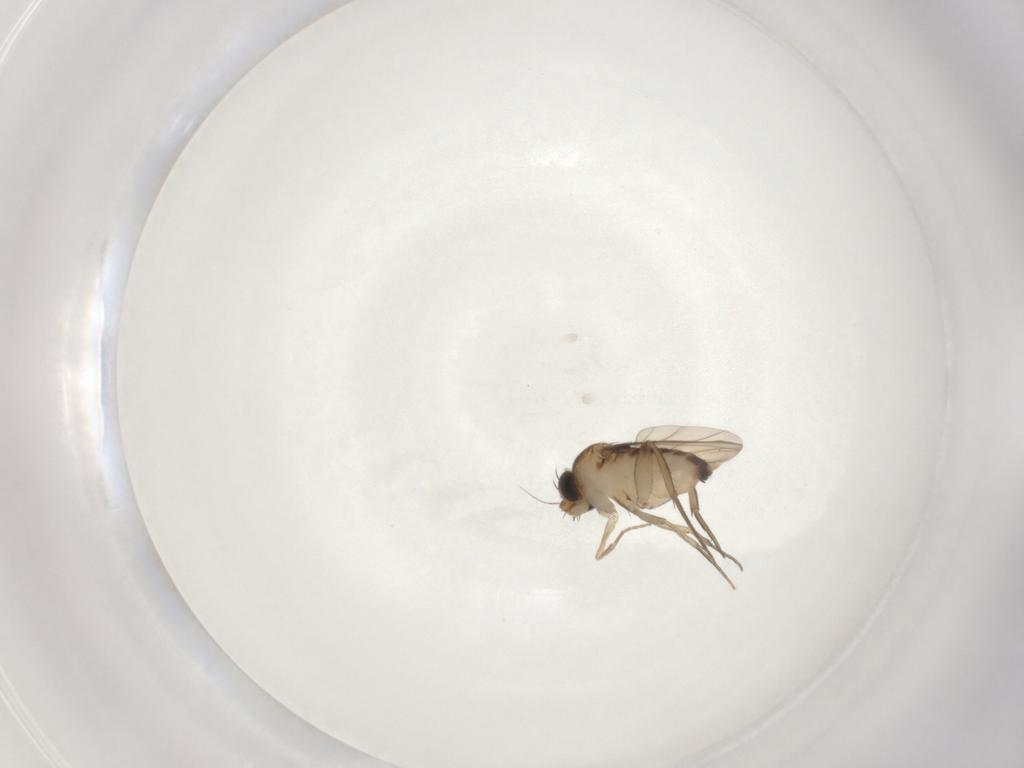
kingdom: Animalia
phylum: Arthropoda
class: Insecta
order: Diptera
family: Phoridae
